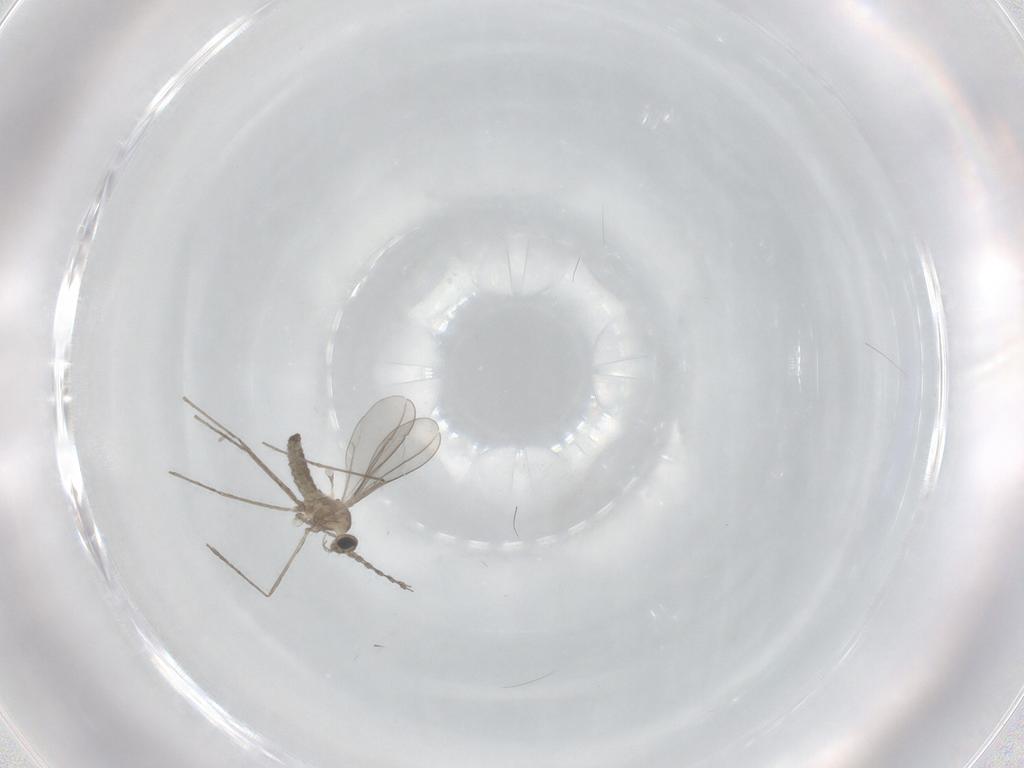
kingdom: Animalia
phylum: Arthropoda
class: Insecta
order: Diptera
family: Cecidomyiidae
